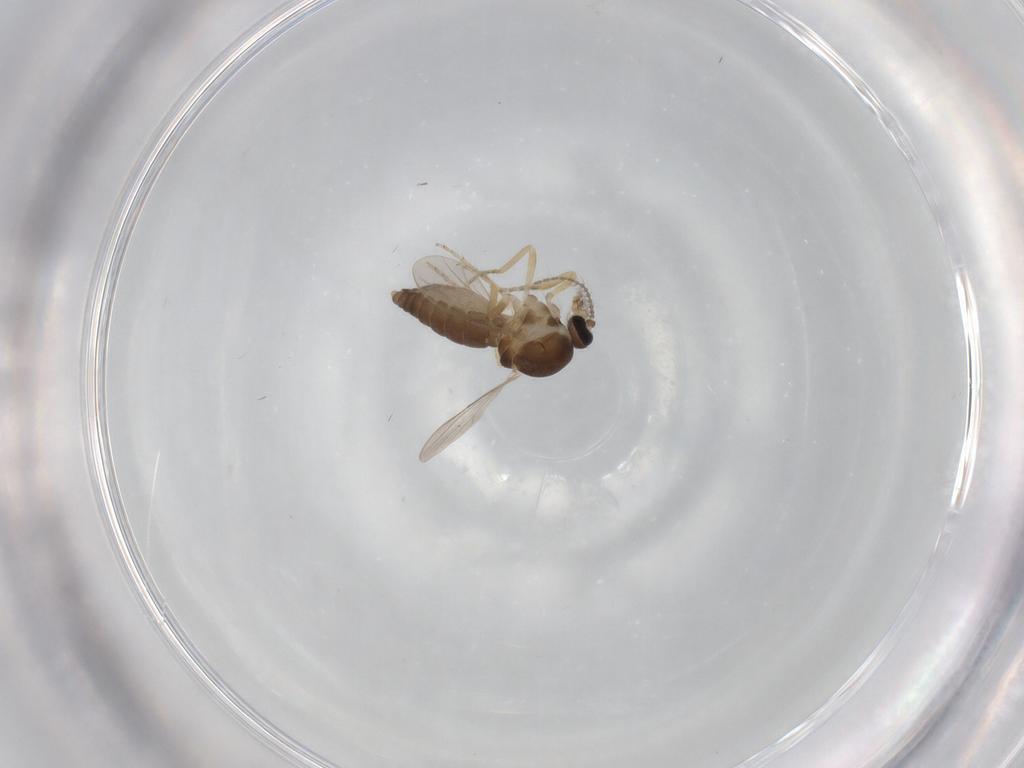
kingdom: Animalia
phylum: Arthropoda
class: Insecta
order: Diptera
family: Ceratopogonidae
